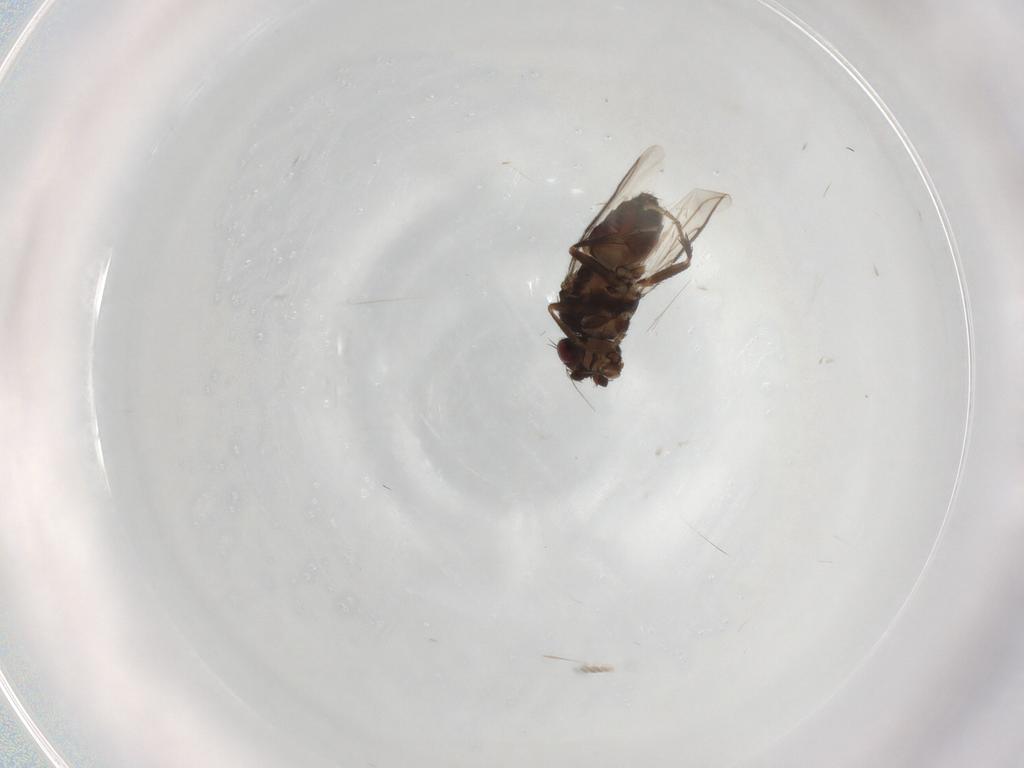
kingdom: Animalia
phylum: Arthropoda
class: Insecta
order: Diptera
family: Sphaeroceridae
